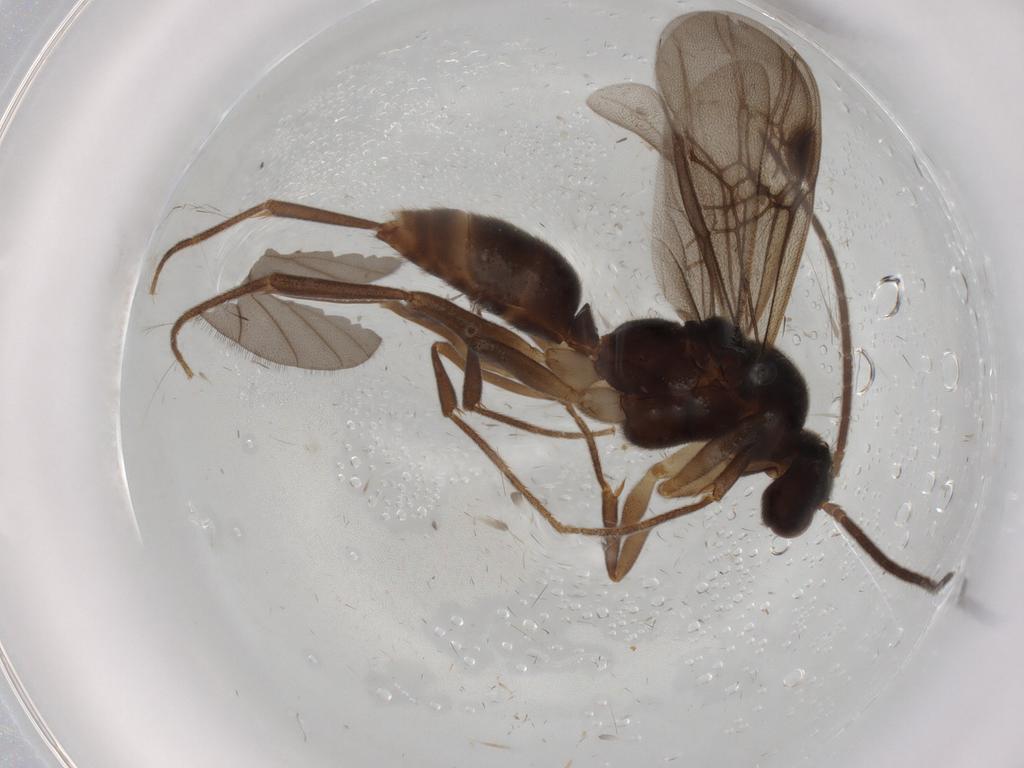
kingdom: Animalia
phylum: Arthropoda
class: Insecta
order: Hymenoptera
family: Formicidae
